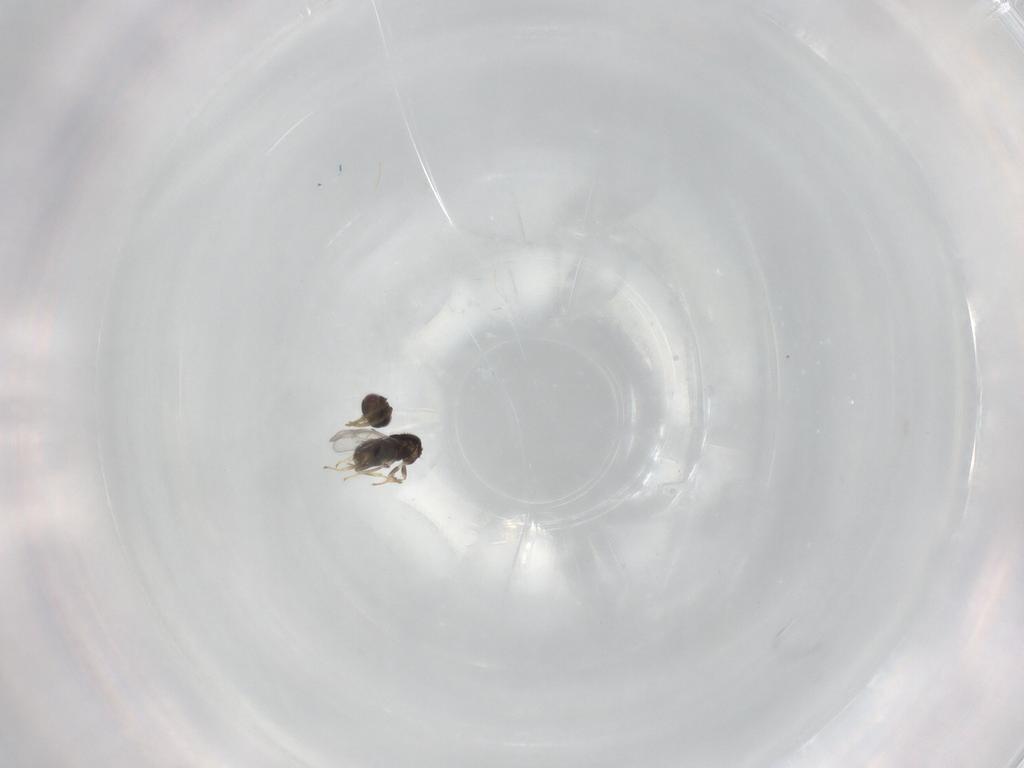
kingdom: Animalia
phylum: Arthropoda
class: Insecta
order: Hymenoptera
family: Aphelinidae
